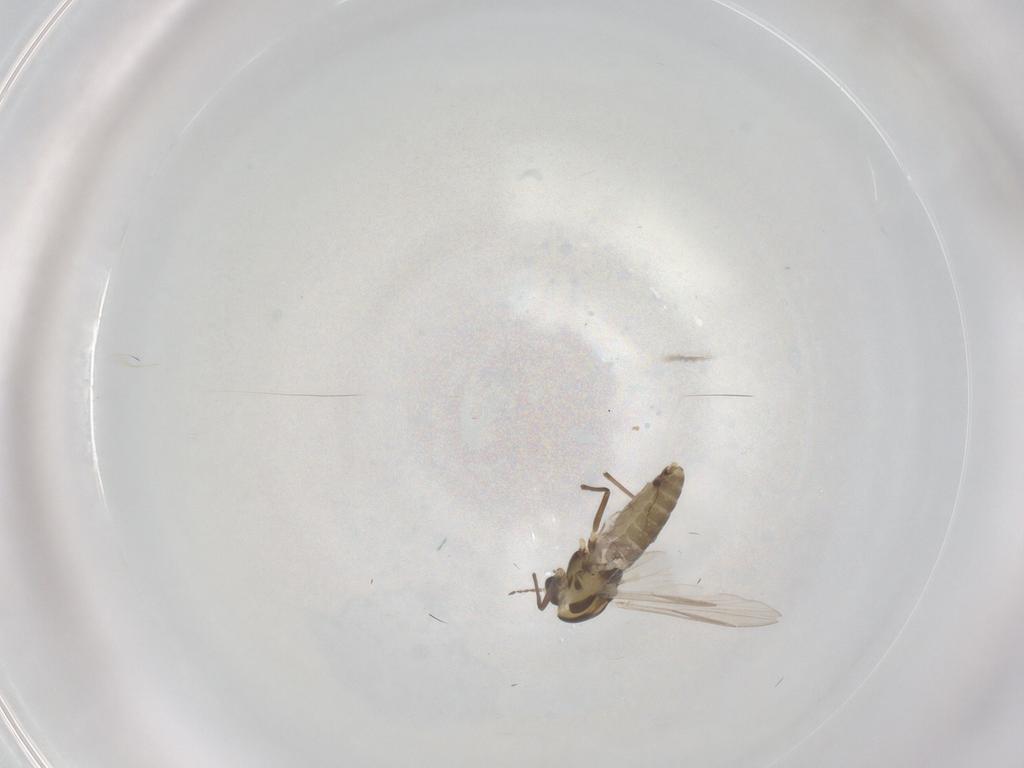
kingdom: Animalia
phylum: Arthropoda
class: Insecta
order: Diptera
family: Chironomidae
